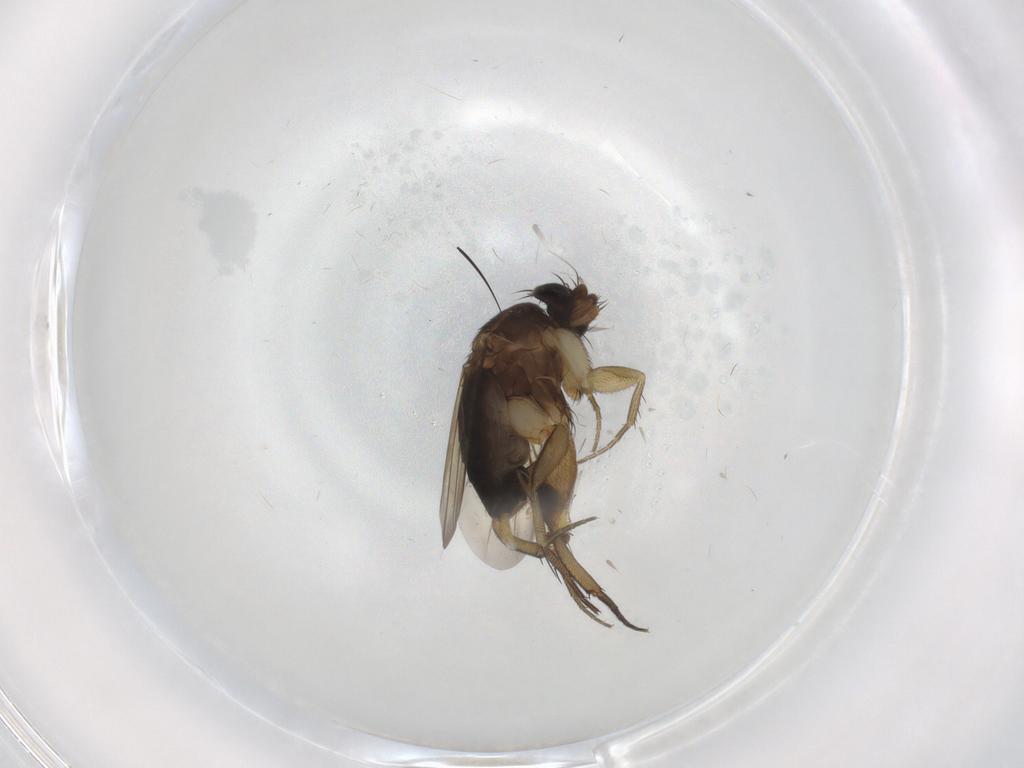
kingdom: Animalia
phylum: Arthropoda
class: Insecta
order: Diptera
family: Phoridae
